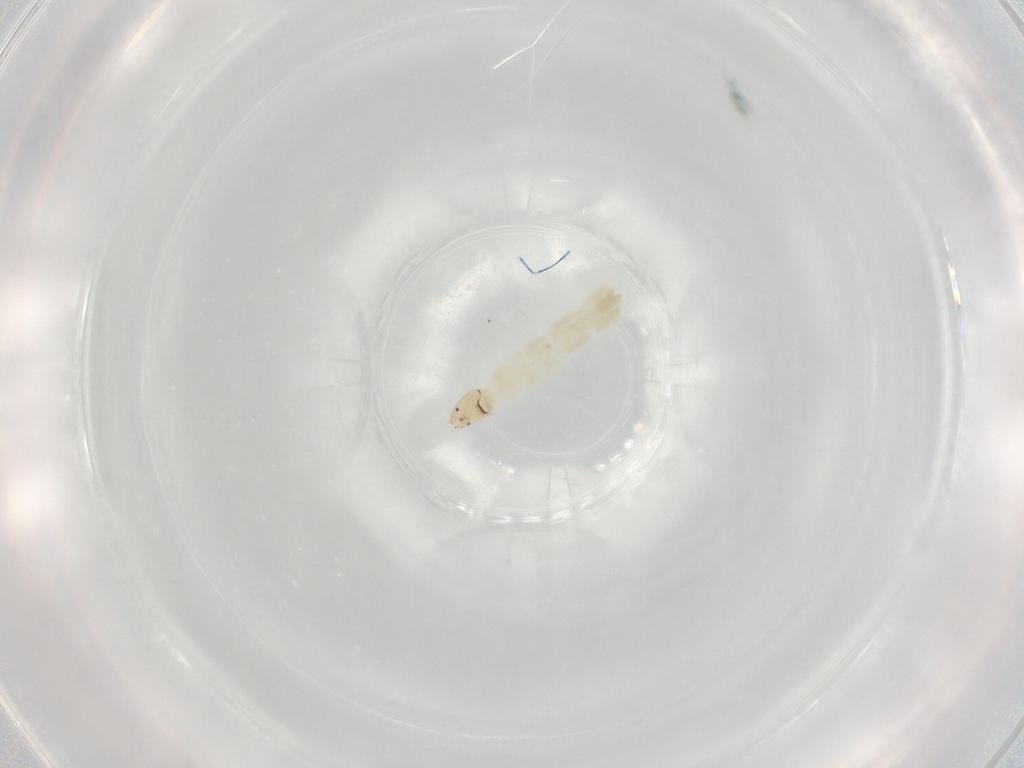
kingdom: Animalia
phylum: Arthropoda
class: Insecta
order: Diptera
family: Chironomidae
